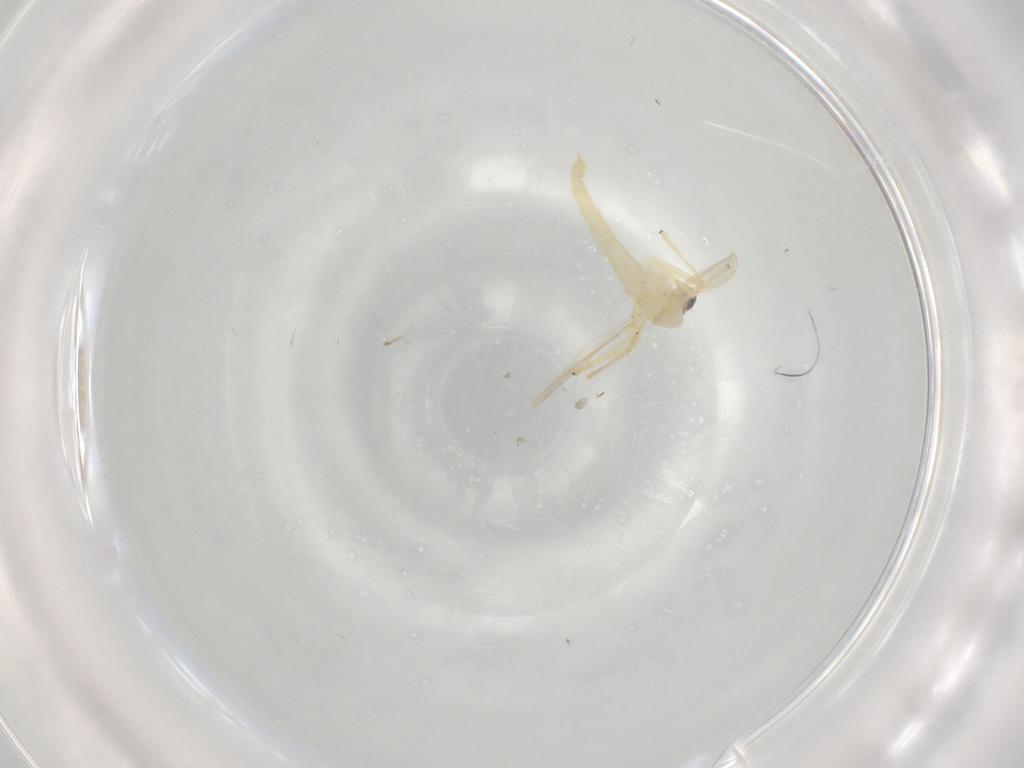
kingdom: Animalia
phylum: Arthropoda
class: Insecta
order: Diptera
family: Chironomidae
